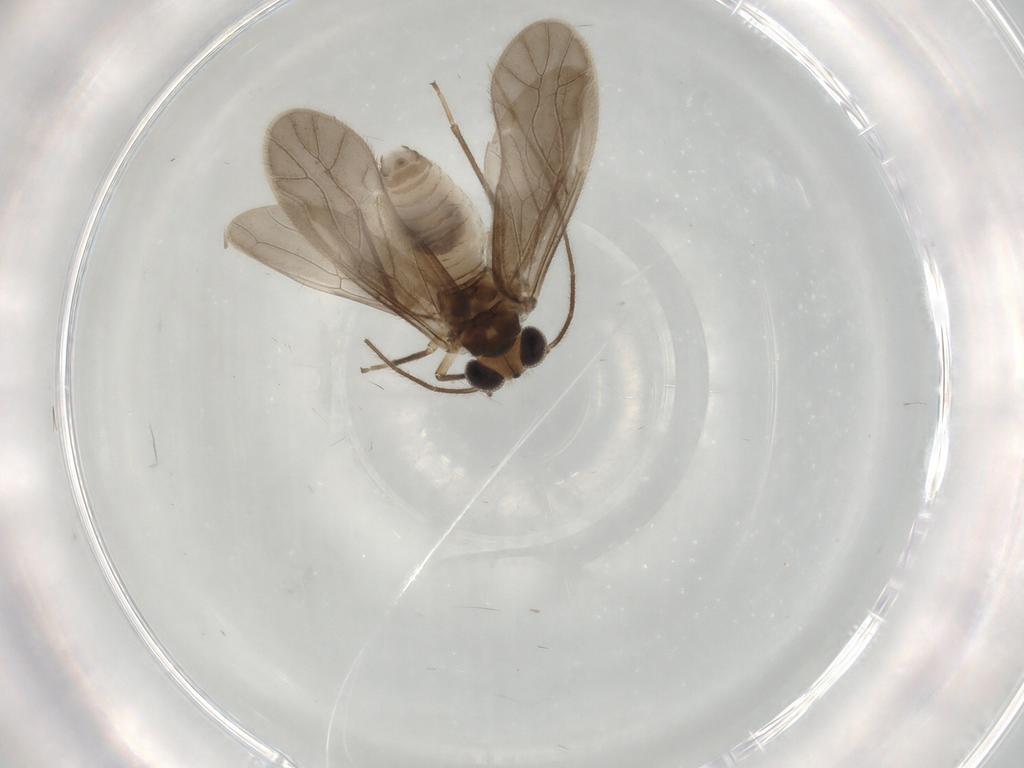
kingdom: Animalia
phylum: Arthropoda
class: Insecta
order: Psocodea
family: Caeciliusidae
